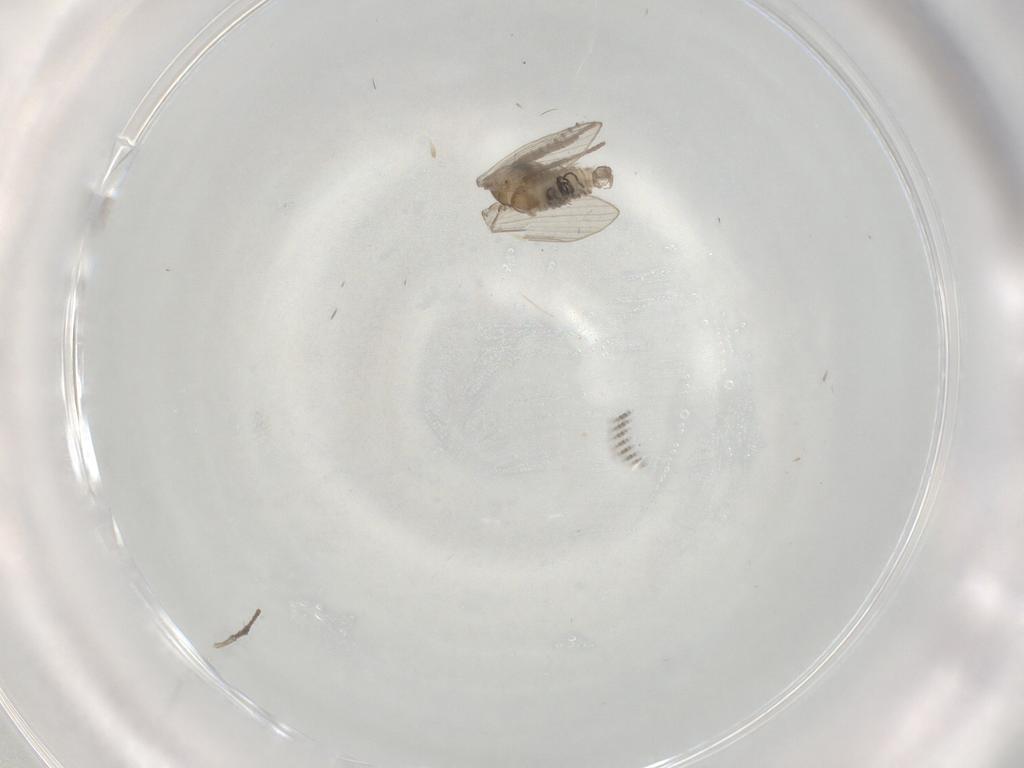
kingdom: Animalia
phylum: Arthropoda
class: Insecta
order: Diptera
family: Psychodidae
